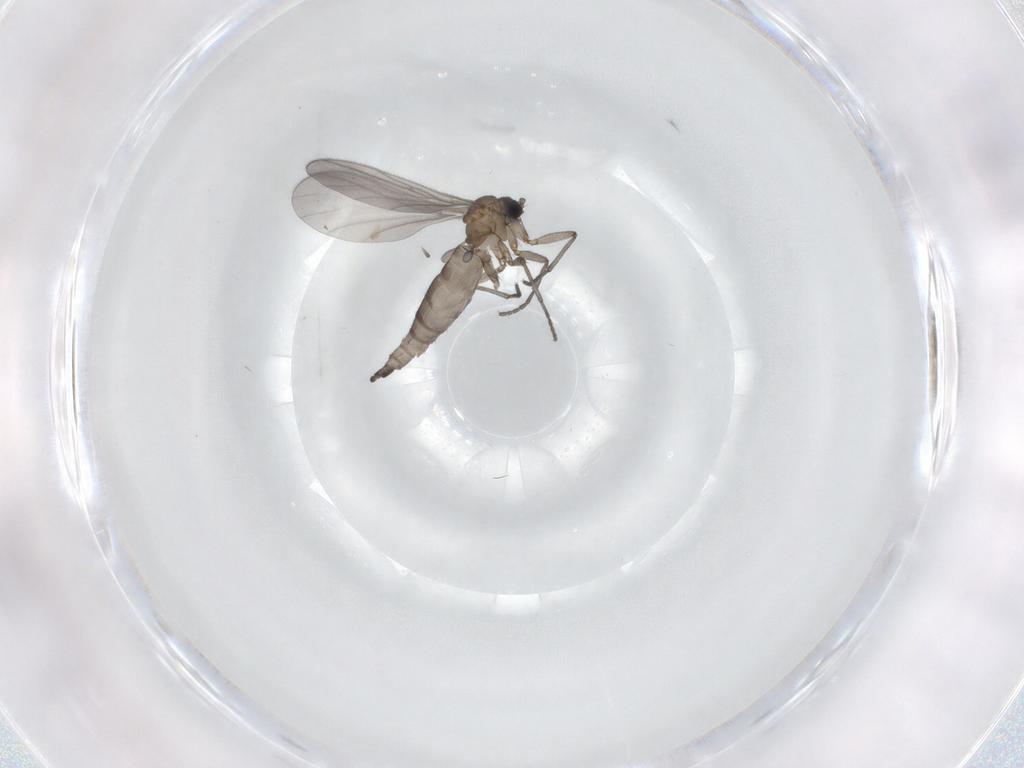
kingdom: Animalia
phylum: Arthropoda
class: Insecta
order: Diptera
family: Sciaridae
